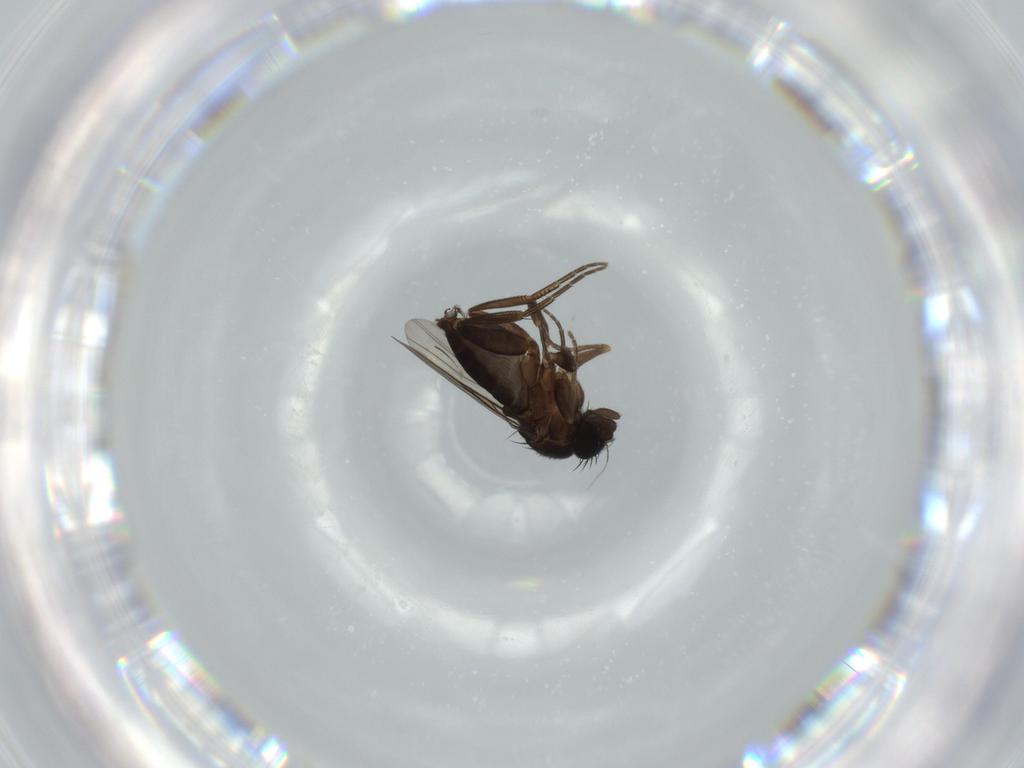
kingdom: Animalia
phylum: Arthropoda
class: Insecta
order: Diptera
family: Phoridae
